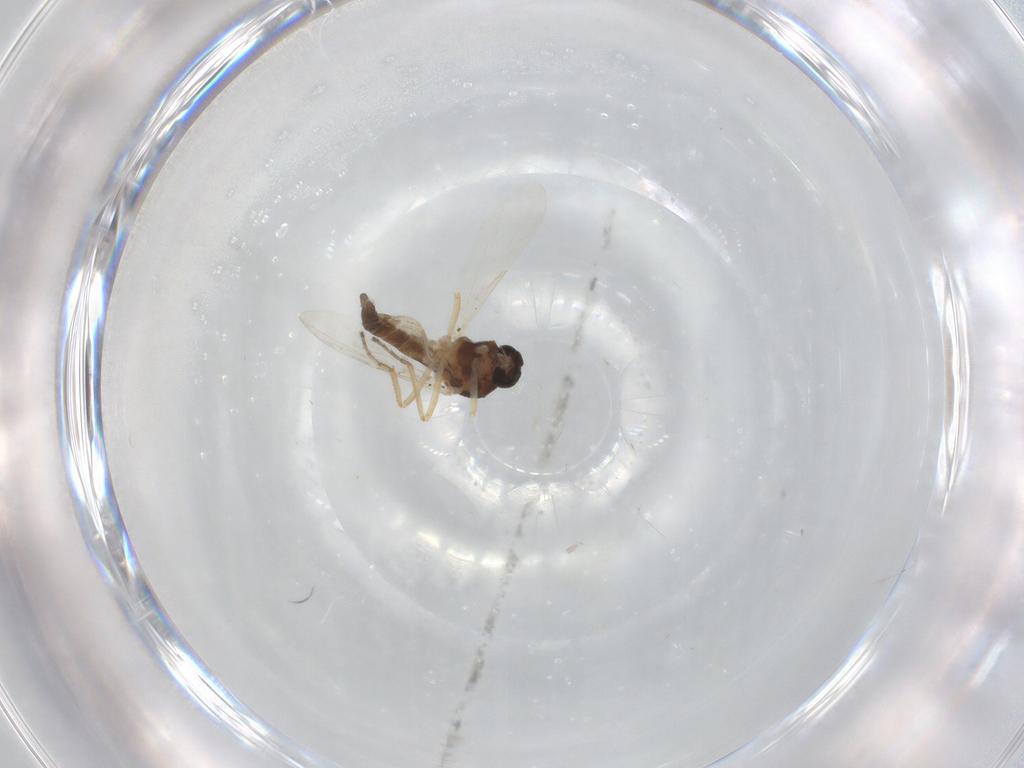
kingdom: Animalia
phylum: Arthropoda
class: Insecta
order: Diptera
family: Ceratopogonidae
